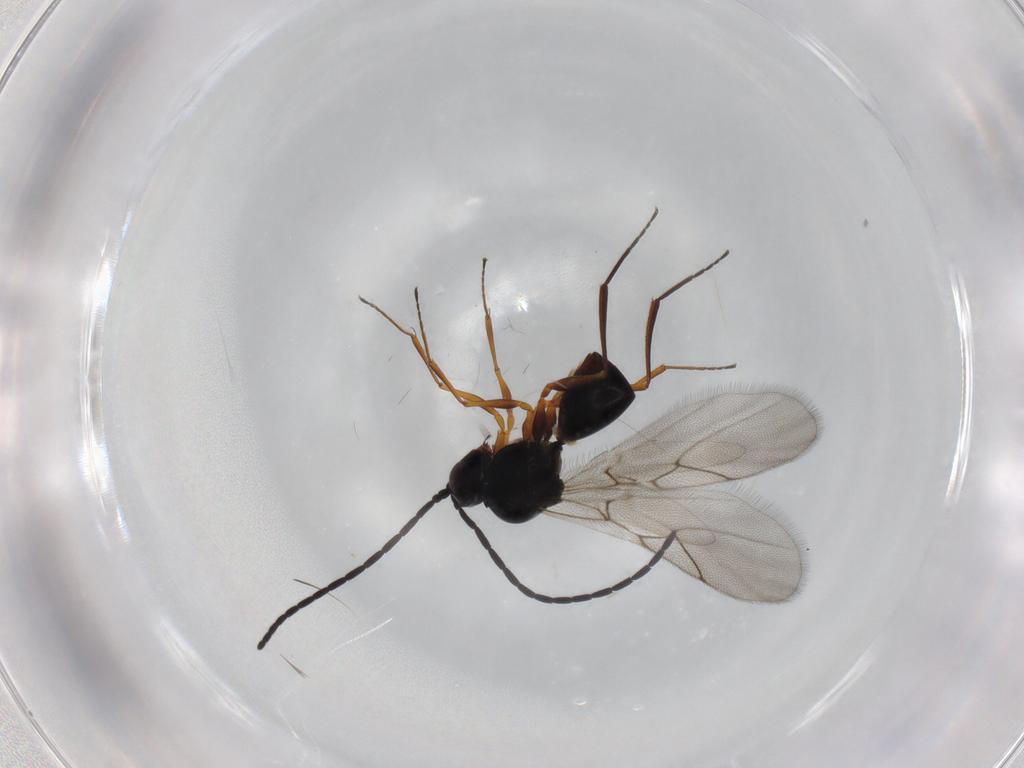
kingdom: Animalia
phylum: Arthropoda
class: Insecta
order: Hymenoptera
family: Figitidae
